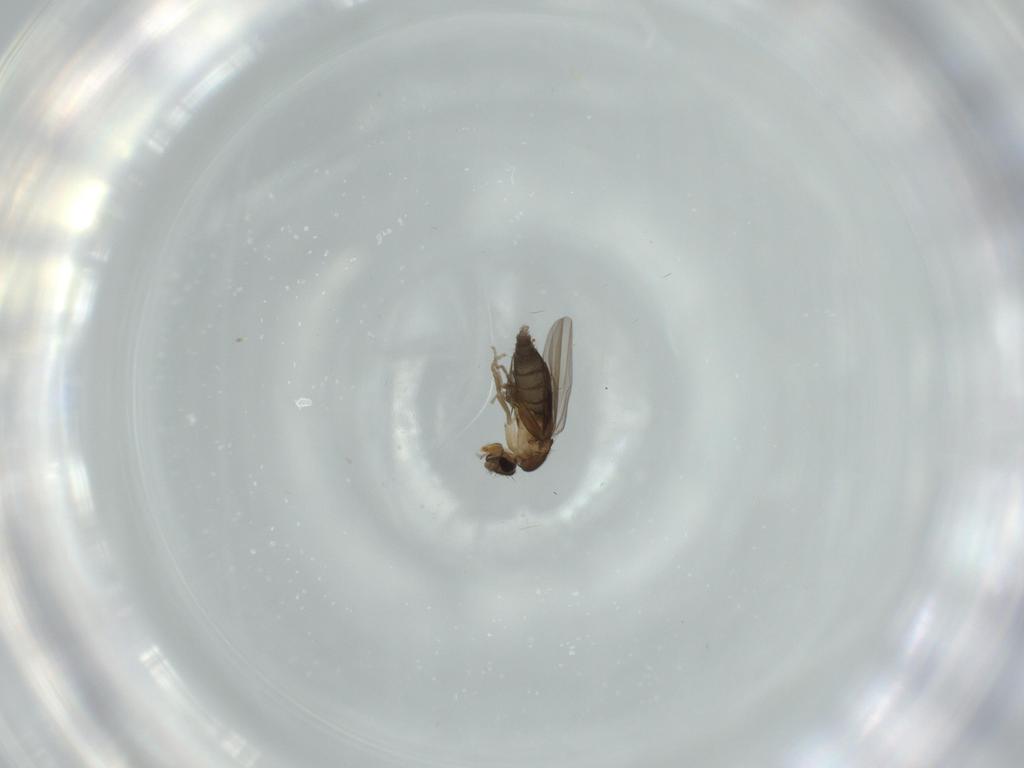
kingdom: Animalia
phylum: Arthropoda
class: Insecta
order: Diptera
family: Phoridae
